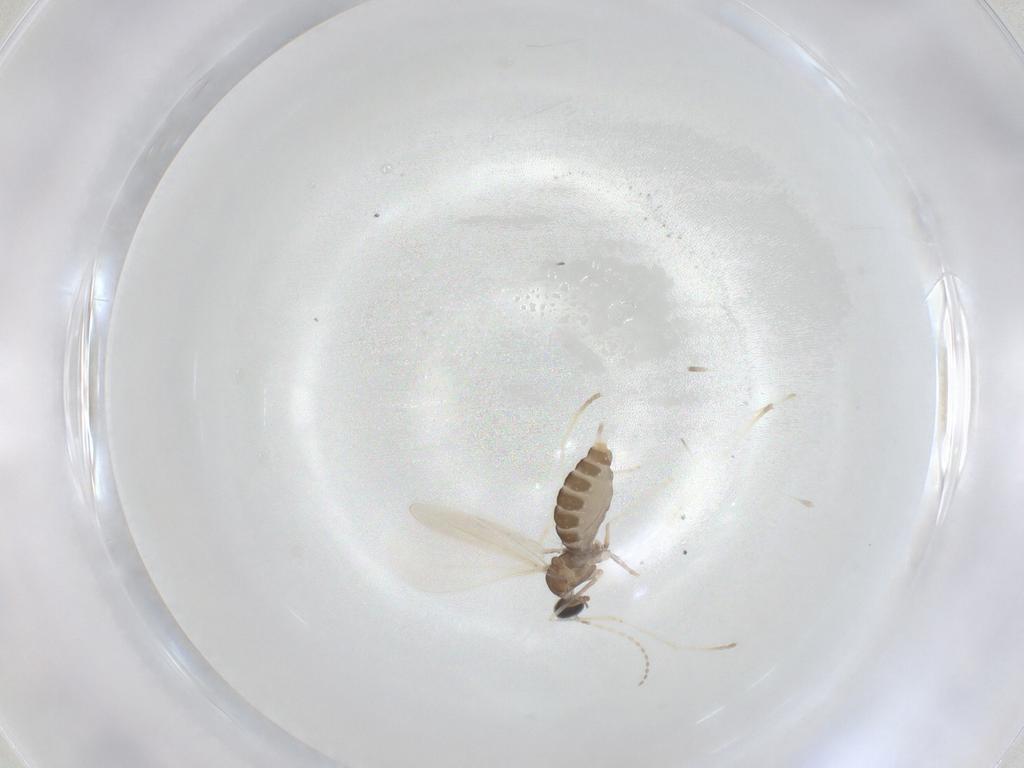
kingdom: Animalia
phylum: Arthropoda
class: Insecta
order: Diptera
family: Cecidomyiidae
